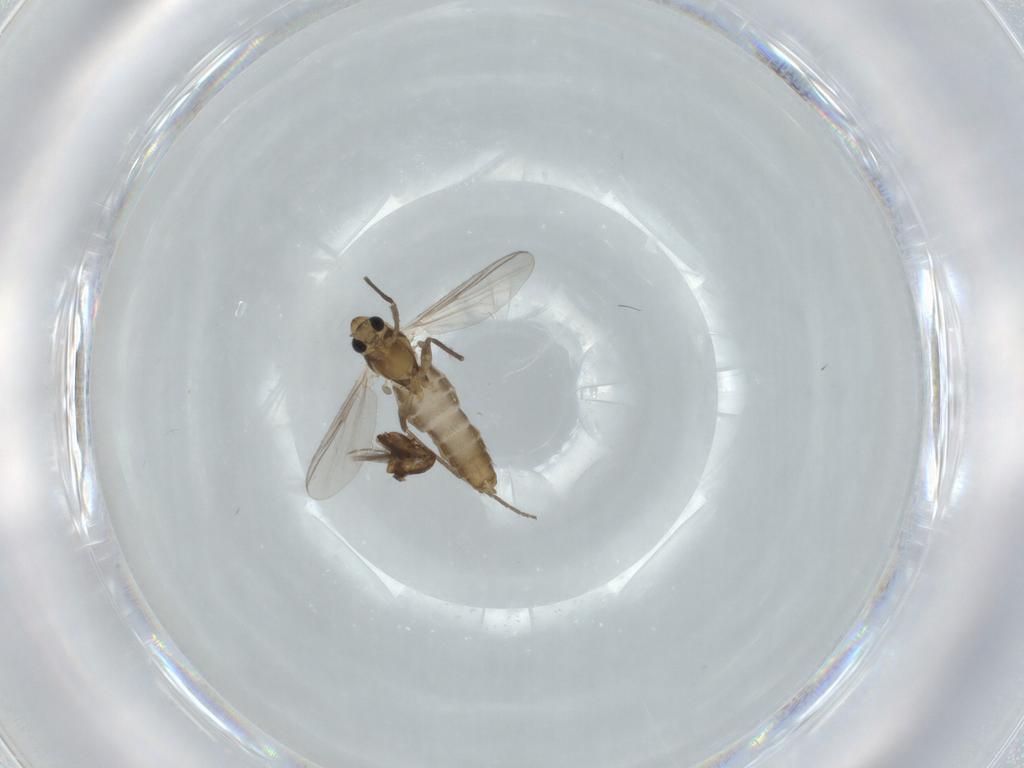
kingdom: Animalia
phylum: Arthropoda
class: Insecta
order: Diptera
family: Chironomidae
